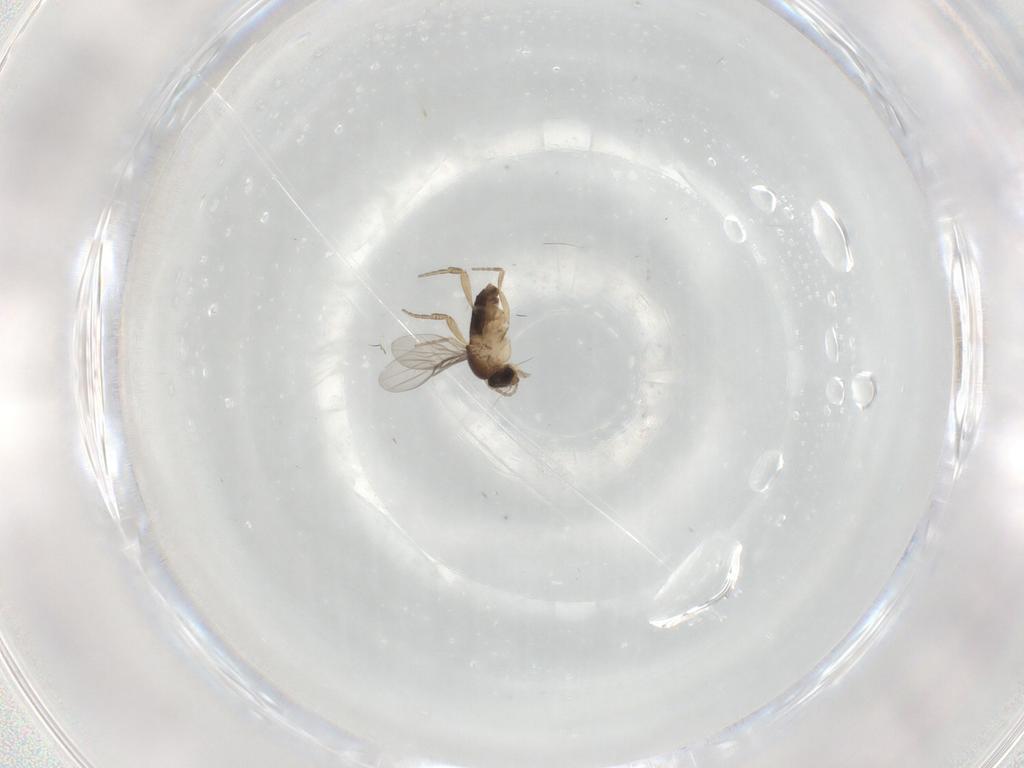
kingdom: Animalia
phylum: Arthropoda
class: Insecta
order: Diptera
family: Phoridae
